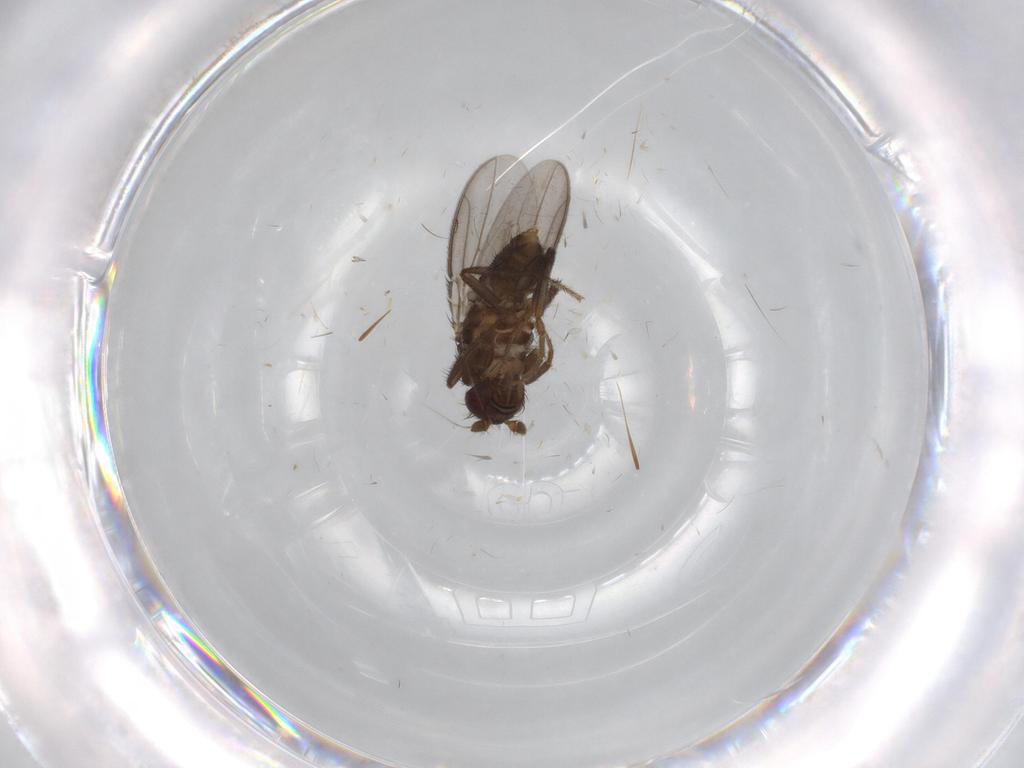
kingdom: Animalia
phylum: Arthropoda
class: Insecta
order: Diptera
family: Sphaeroceridae
